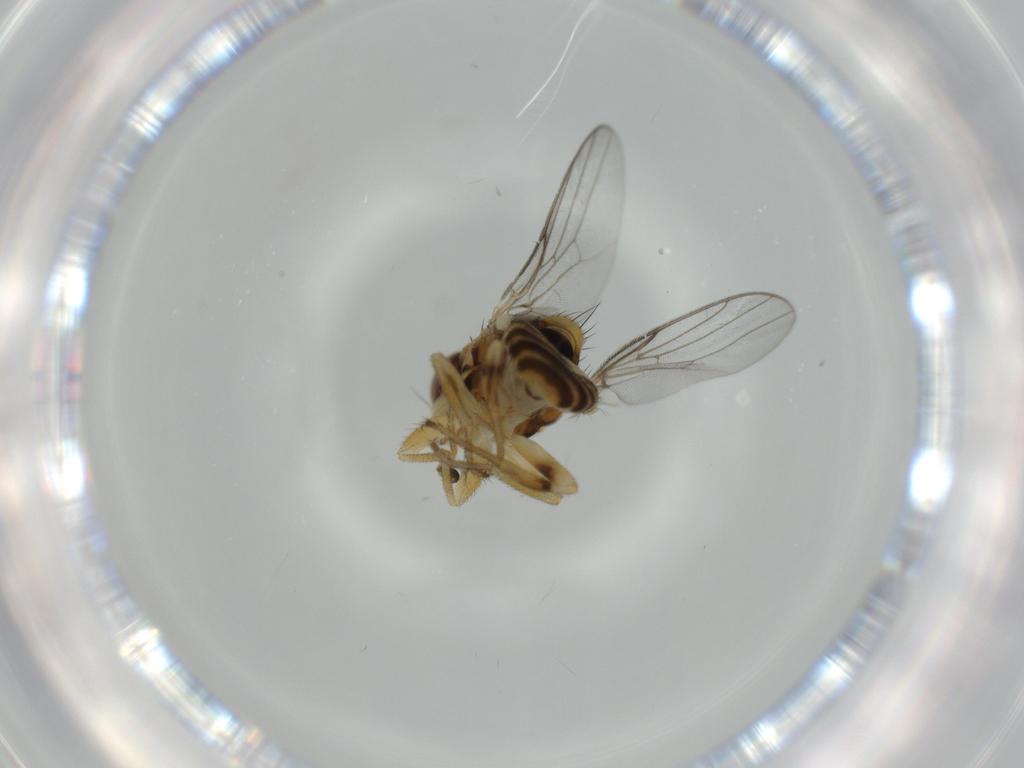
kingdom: Animalia
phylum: Arthropoda
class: Insecta
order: Diptera
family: Chloropidae
